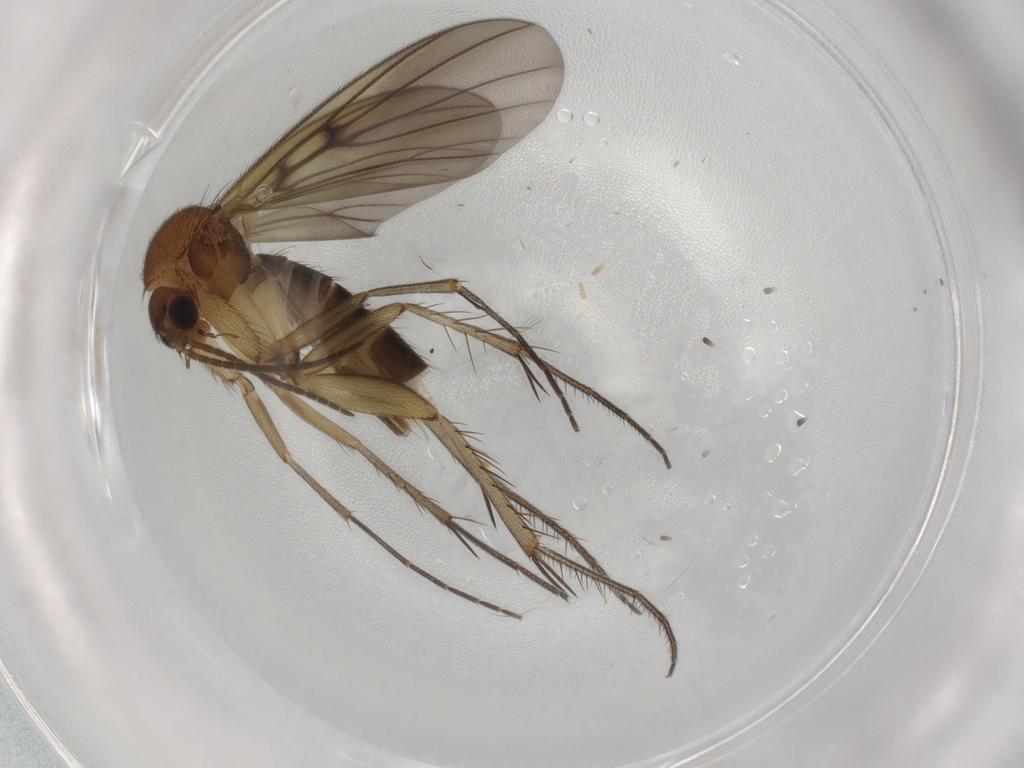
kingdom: Animalia
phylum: Arthropoda
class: Insecta
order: Diptera
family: Mycetophilidae
